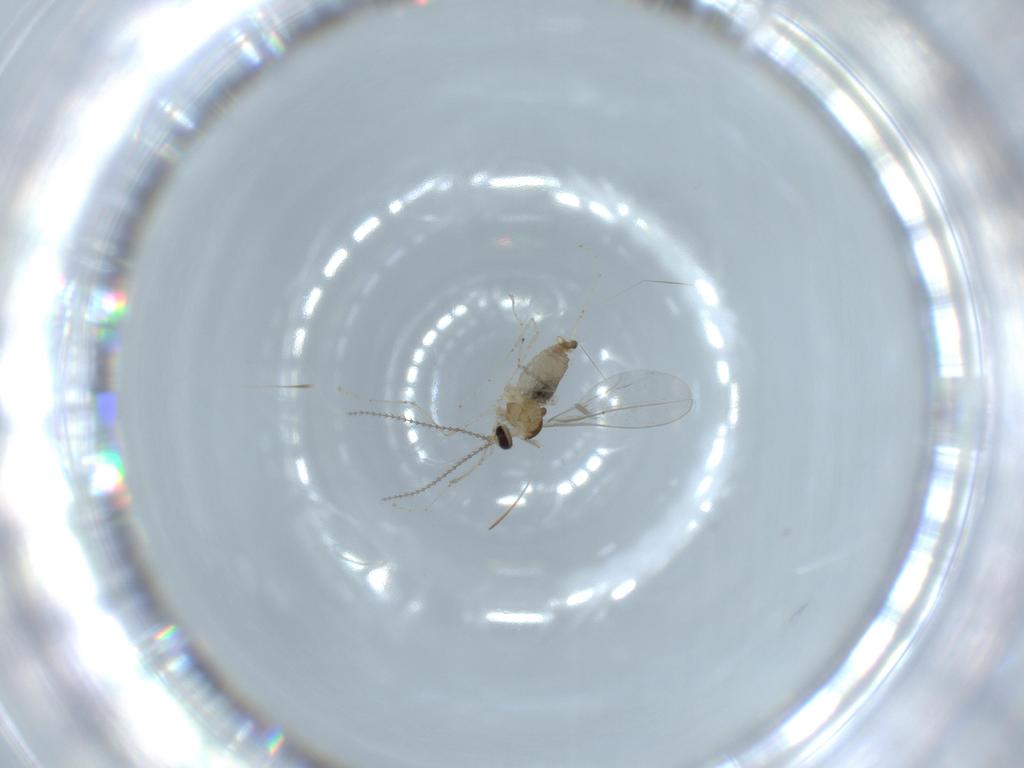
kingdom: Animalia
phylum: Arthropoda
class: Insecta
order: Diptera
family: Cecidomyiidae
